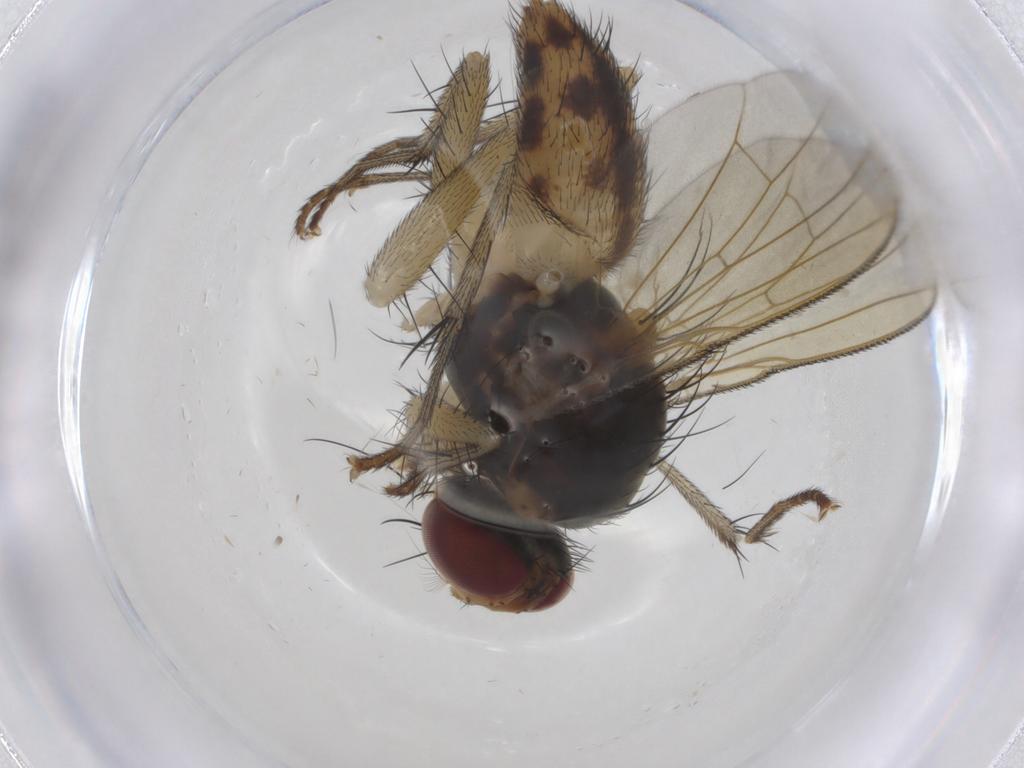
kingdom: Animalia
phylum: Arthropoda
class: Insecta
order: Diptera
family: Muscidae
